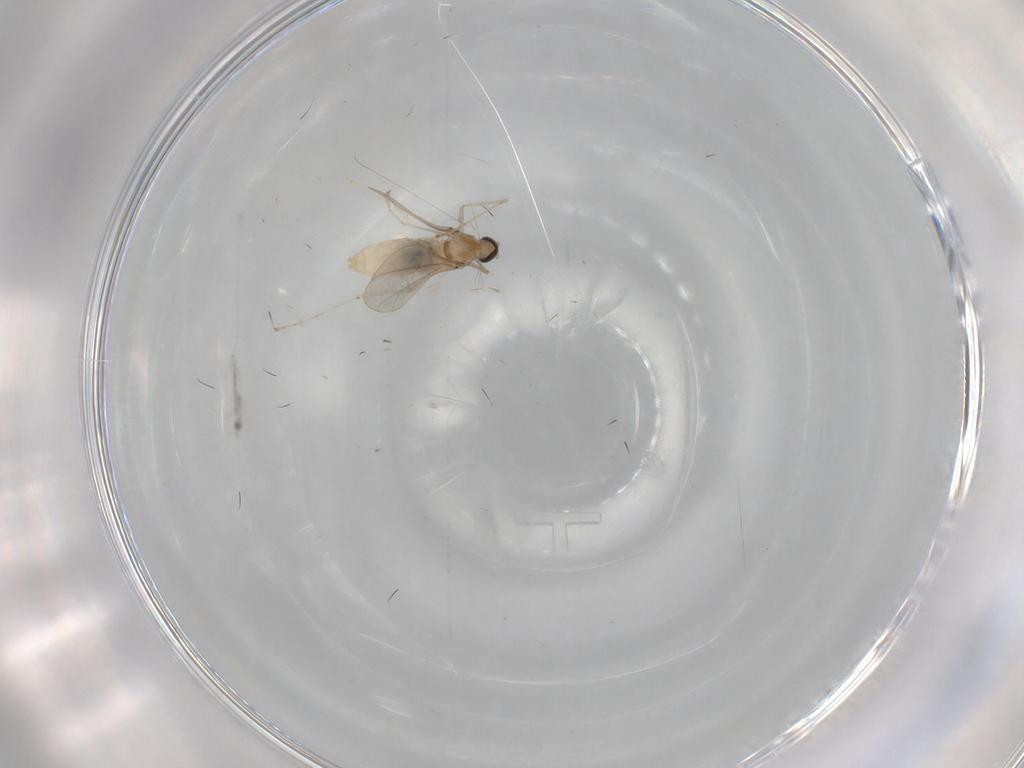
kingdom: Animalia
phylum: Arthropoda
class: Insecta
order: Diptera
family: Cecidomyiidae
